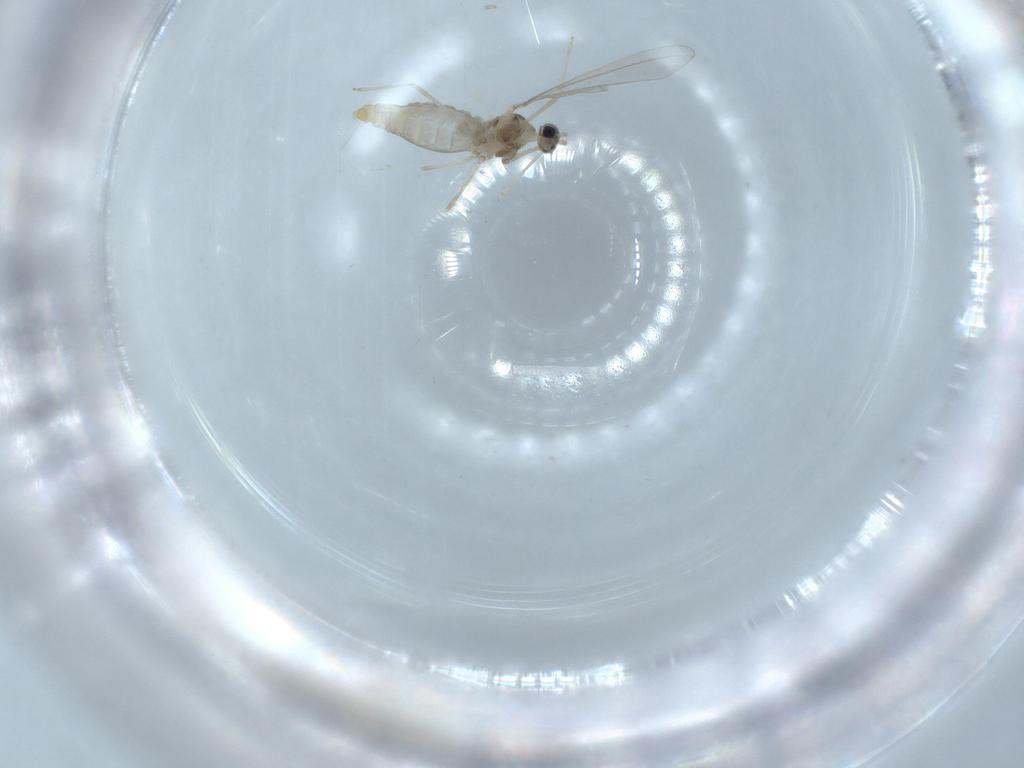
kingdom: Animalia
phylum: Arthropoda
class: Insecta
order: Diptera
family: Cecidomyiidae
